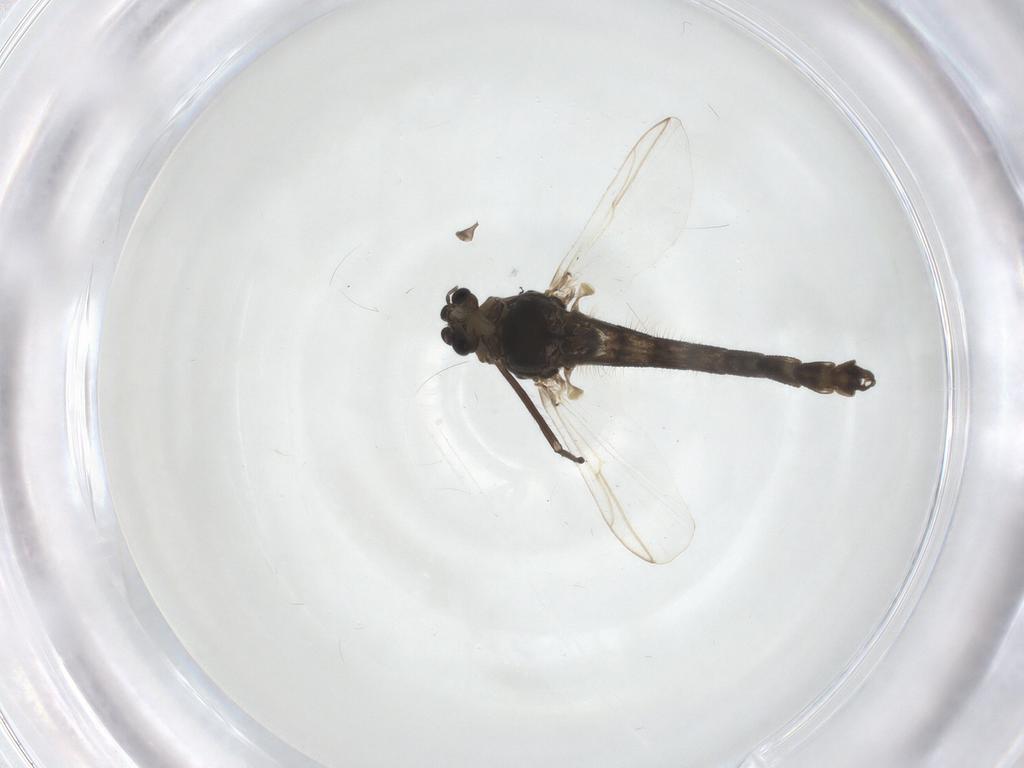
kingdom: Animalia
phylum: Arthropoda
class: Insecta
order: Diptera
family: Chironomidae
